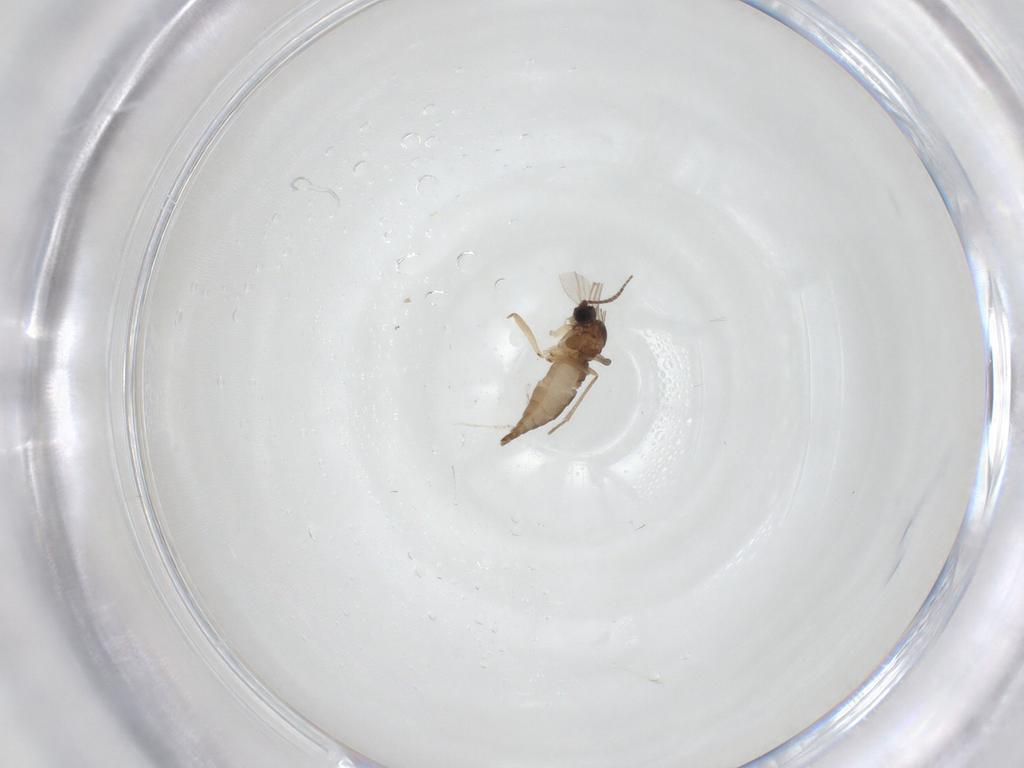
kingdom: Animalia
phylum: Arthropoda
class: Insecta
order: Diptera
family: Sciaridae
